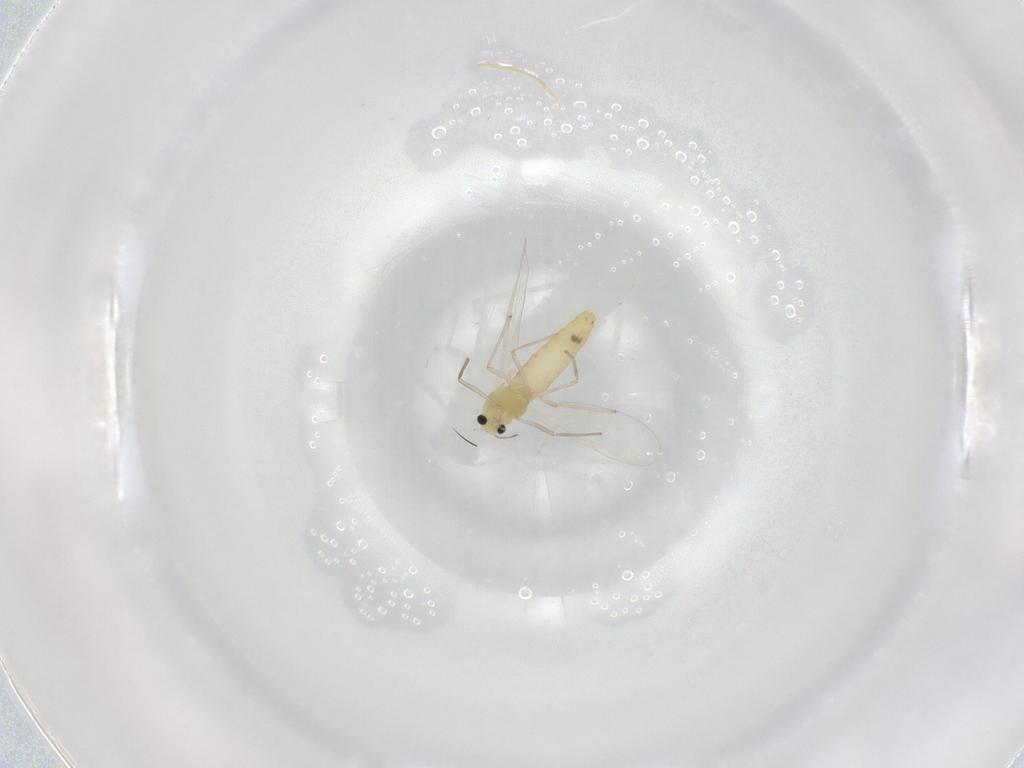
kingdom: Animalia
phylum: Arthropoda
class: Insecta
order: Diptera
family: Chironomidae
